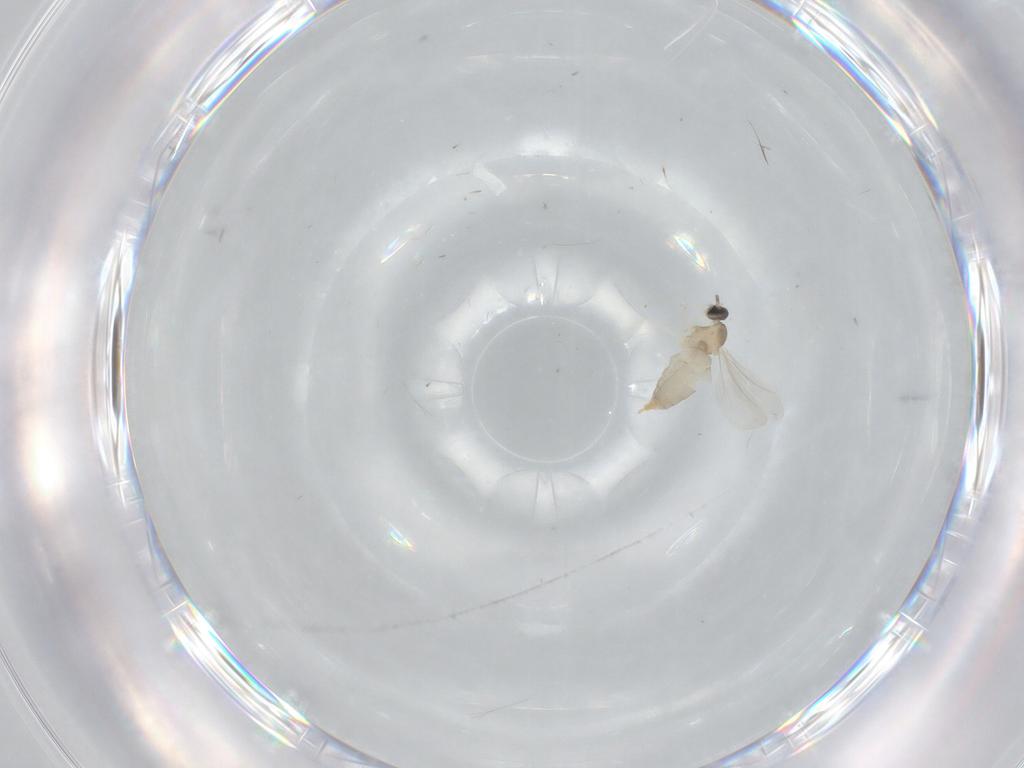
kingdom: Animalia
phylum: Arthropoda
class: Insecta
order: Diptera
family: Cecidomyiidae
